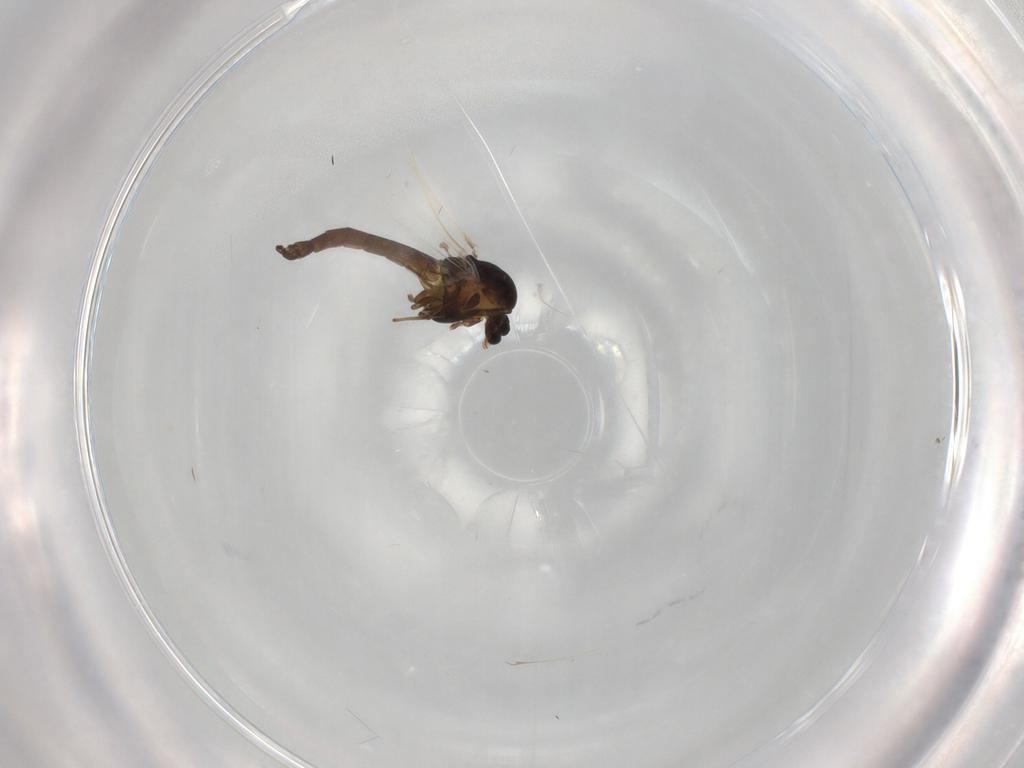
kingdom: Animalia
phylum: Arthropoda
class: Insecta
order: Diptera
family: Chironomidae
